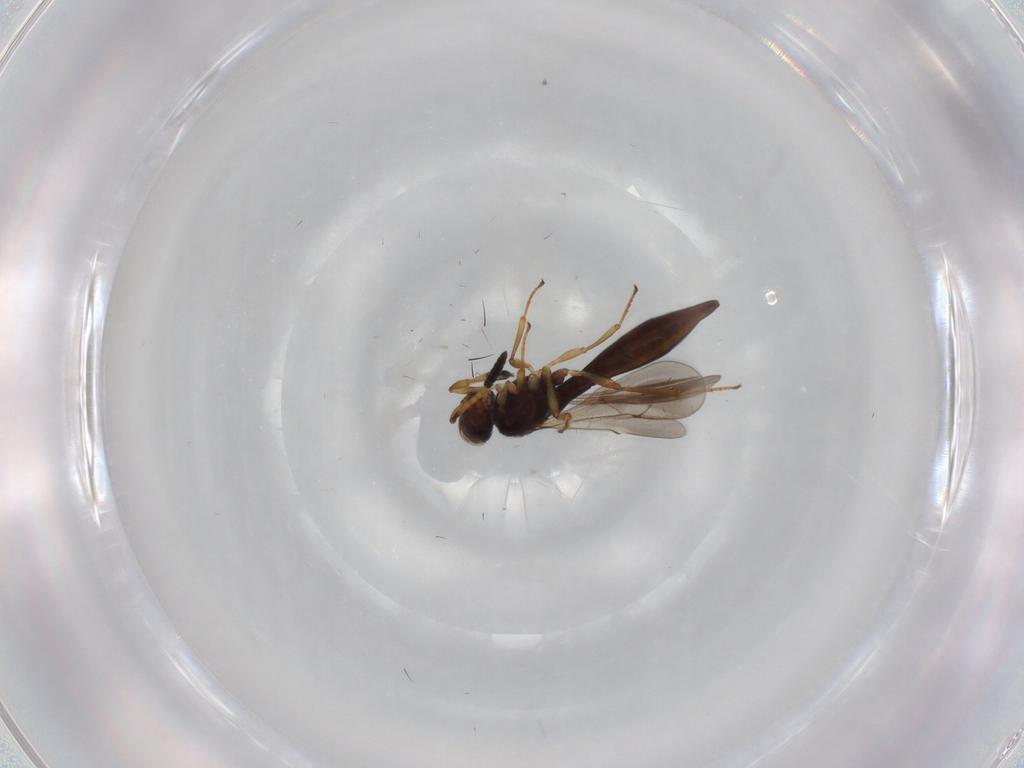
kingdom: Animalia
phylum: Arthropoda
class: Insecta
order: Hymenoptera
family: Scelionidae
